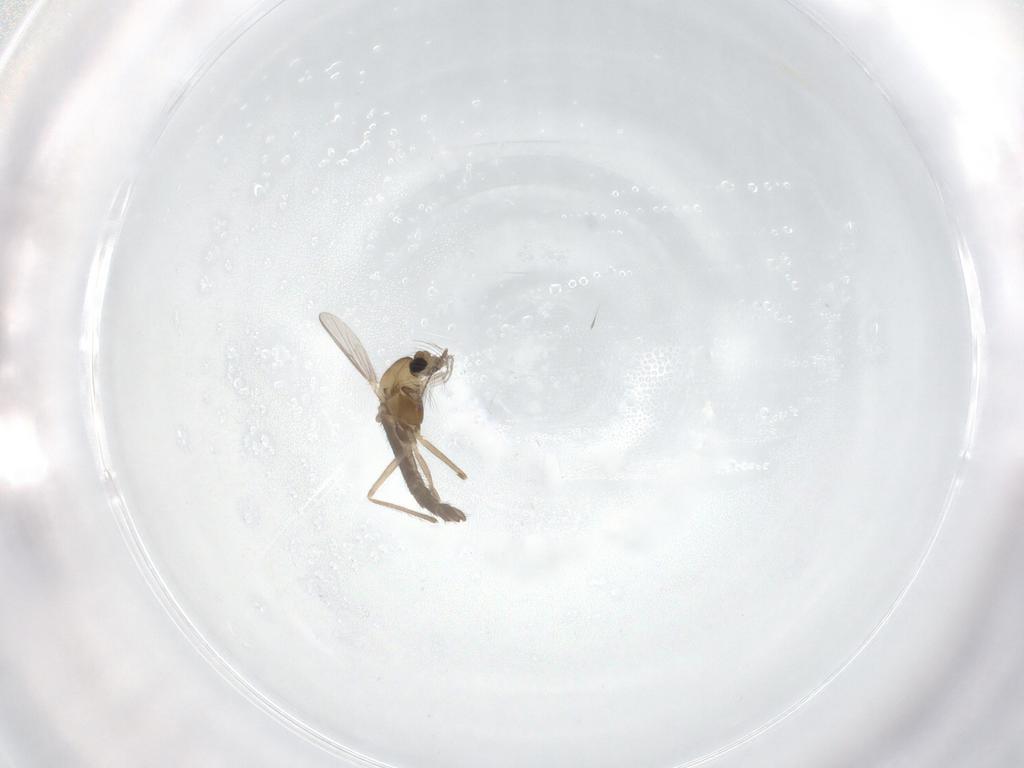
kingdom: Animalia
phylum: Arthropoda
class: Insecta
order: Diptera
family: Chironomidae
